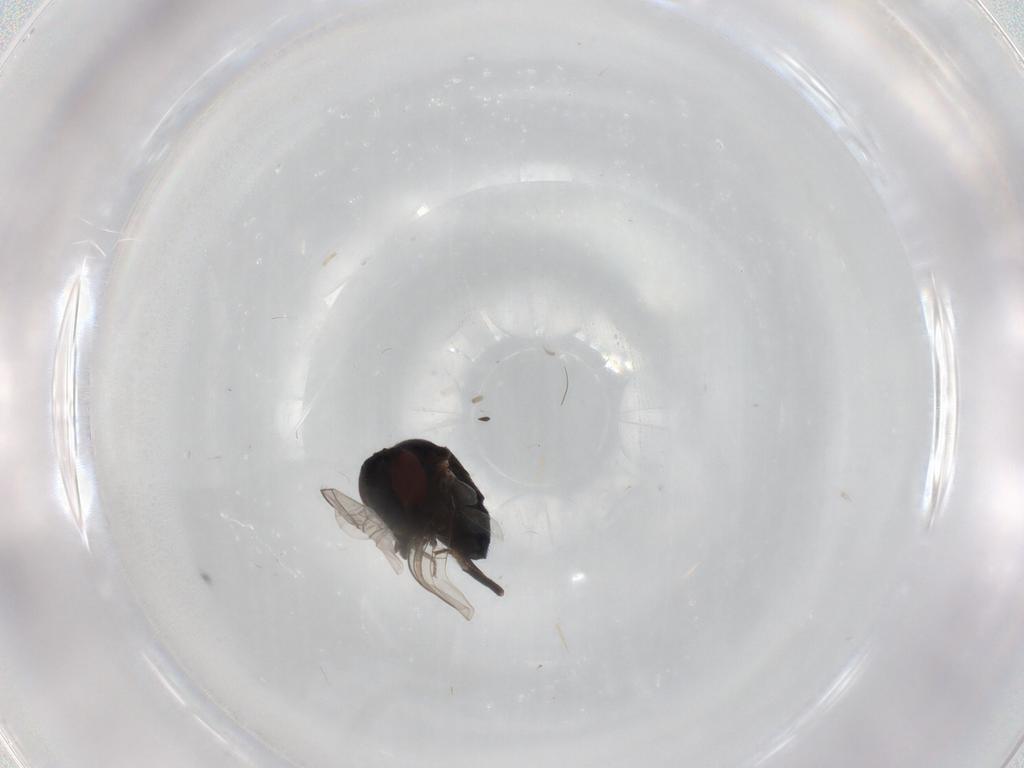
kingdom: Animalia
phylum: Arthropoda
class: Insecta
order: Diptera
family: Cryptochetidae
